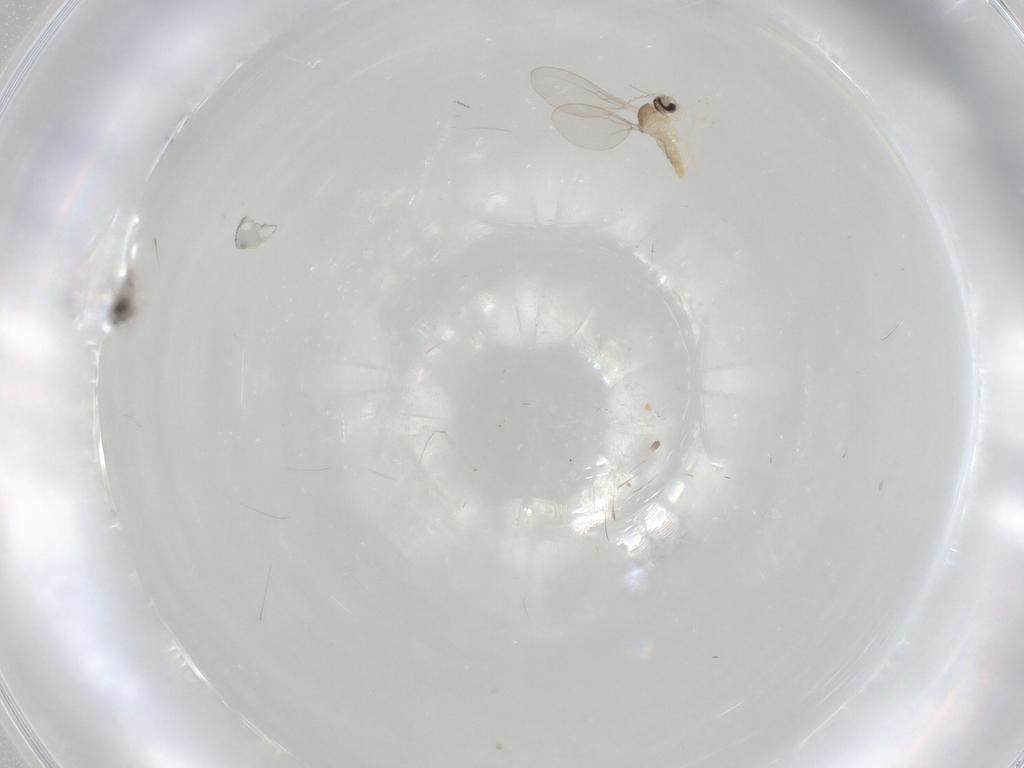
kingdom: Animalia
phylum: Arthropoda
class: Insecta
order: Diptera
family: Cecidomyiidae
